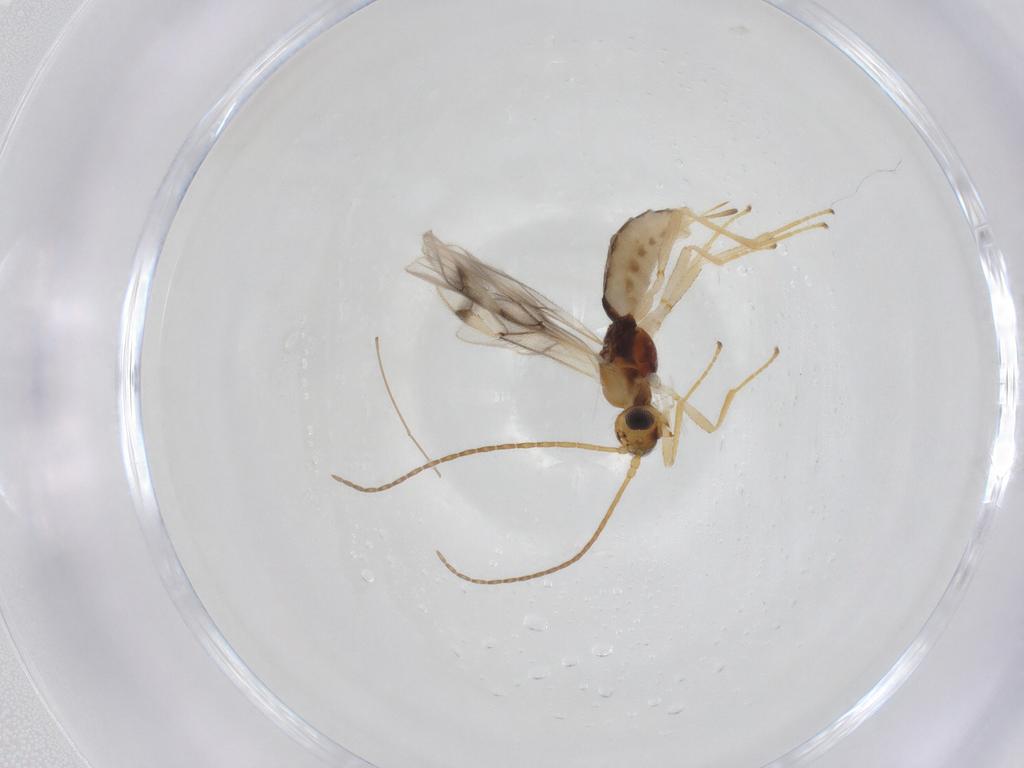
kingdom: Animalia
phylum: Arthropoda
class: Insecta
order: Hymenoptera
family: Braconidae
